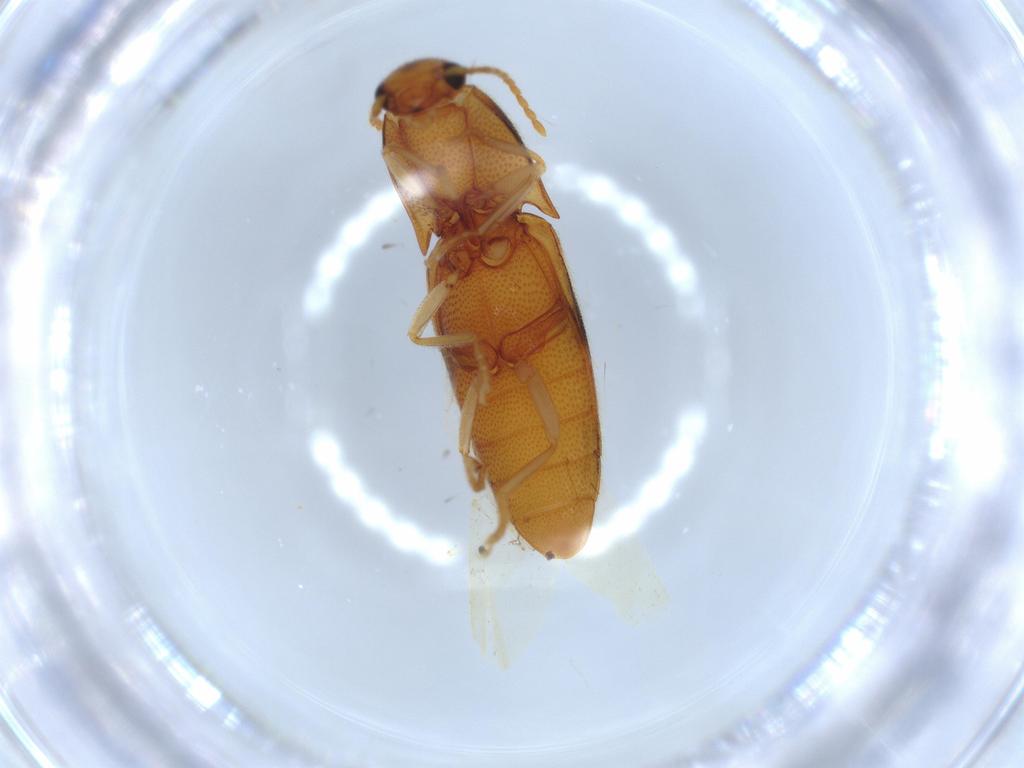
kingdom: Animalia
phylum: Arthropoda
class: Insecta
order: Coleoptera
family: Elateridae
